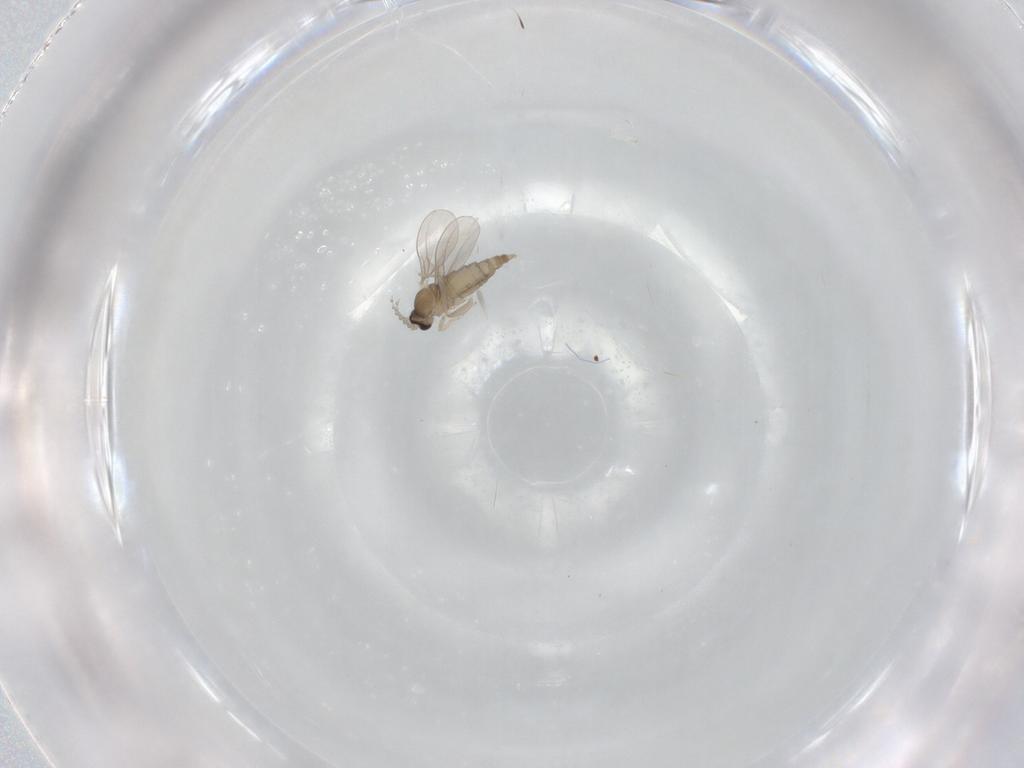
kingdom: Animalia
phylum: Arthropoda
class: Insecta
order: Diptera
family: Cecidomyiidae
